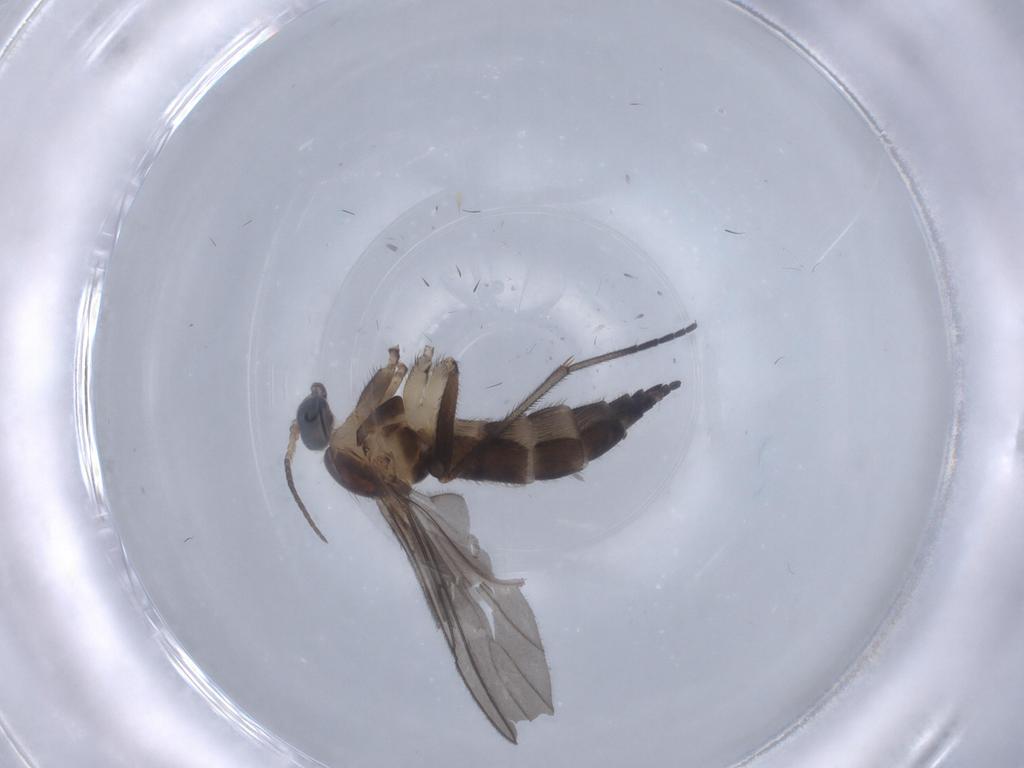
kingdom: Animalia
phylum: Arthropoda
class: Insecta
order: Diptera
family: Sciaridae
